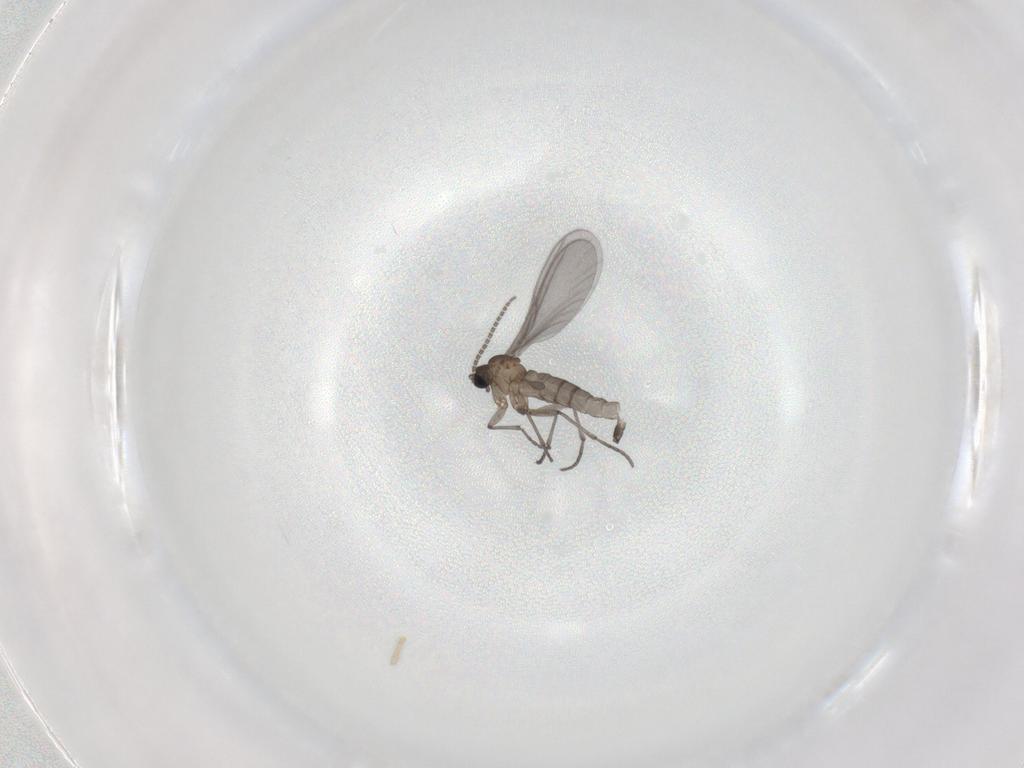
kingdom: Animalia
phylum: Arthropoda
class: Insecta
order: Diptera
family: Sciaridae
